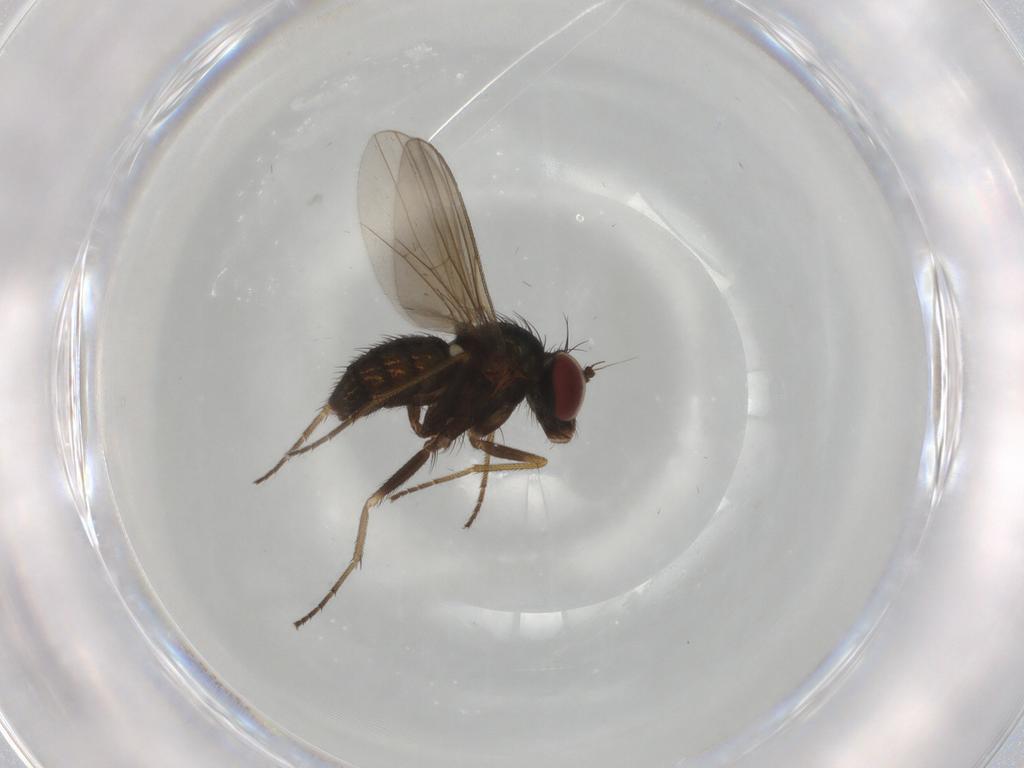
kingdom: Animalia
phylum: Arthropoda
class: Insecta
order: Diptera
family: Dolichopodidae
